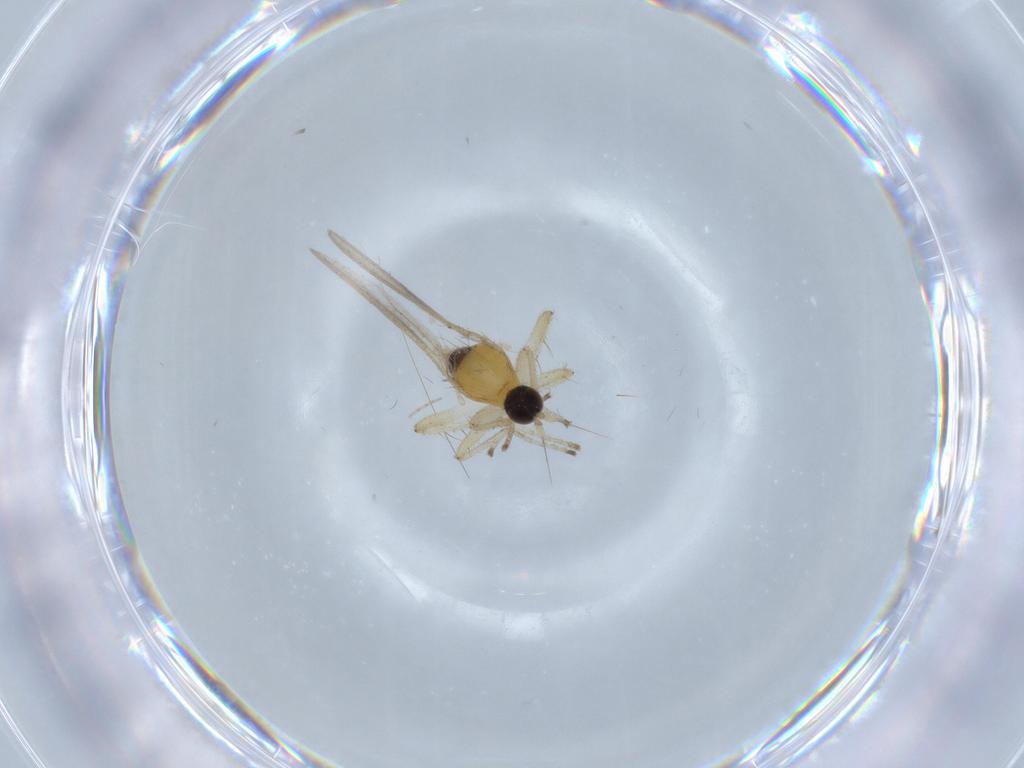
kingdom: Animalia
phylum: Arthropoda
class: Insecta
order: Diptera
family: Hybotidae
